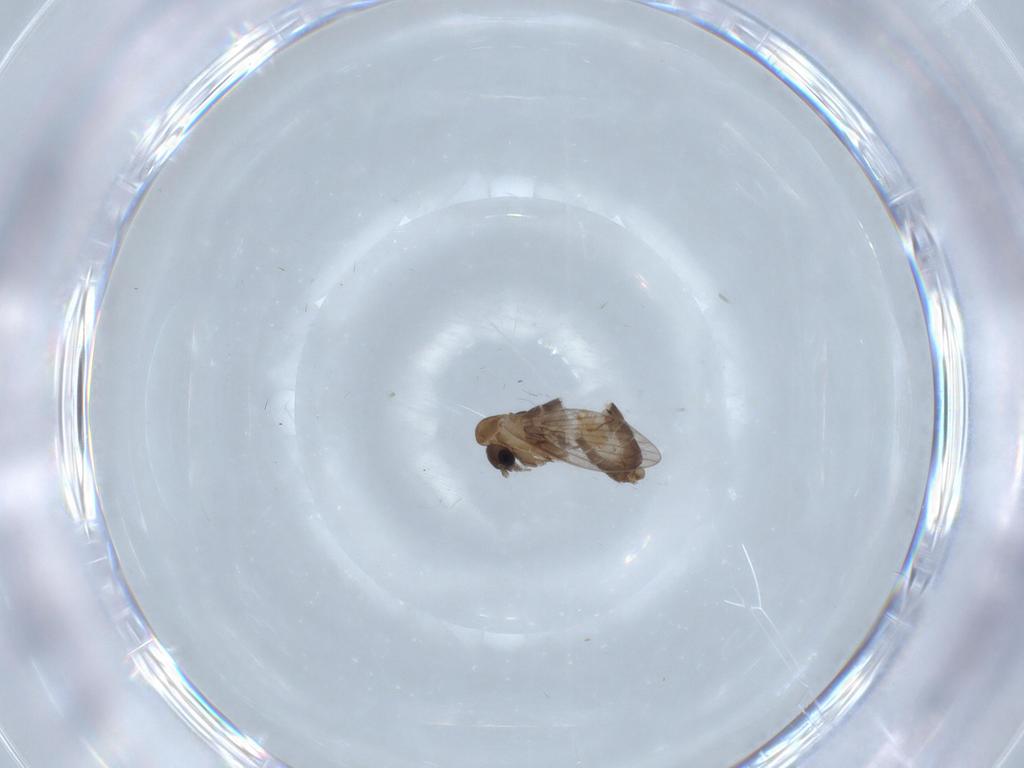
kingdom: Animalia
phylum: Arthropoda
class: Insecta
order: Diptera
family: Psychodidae
